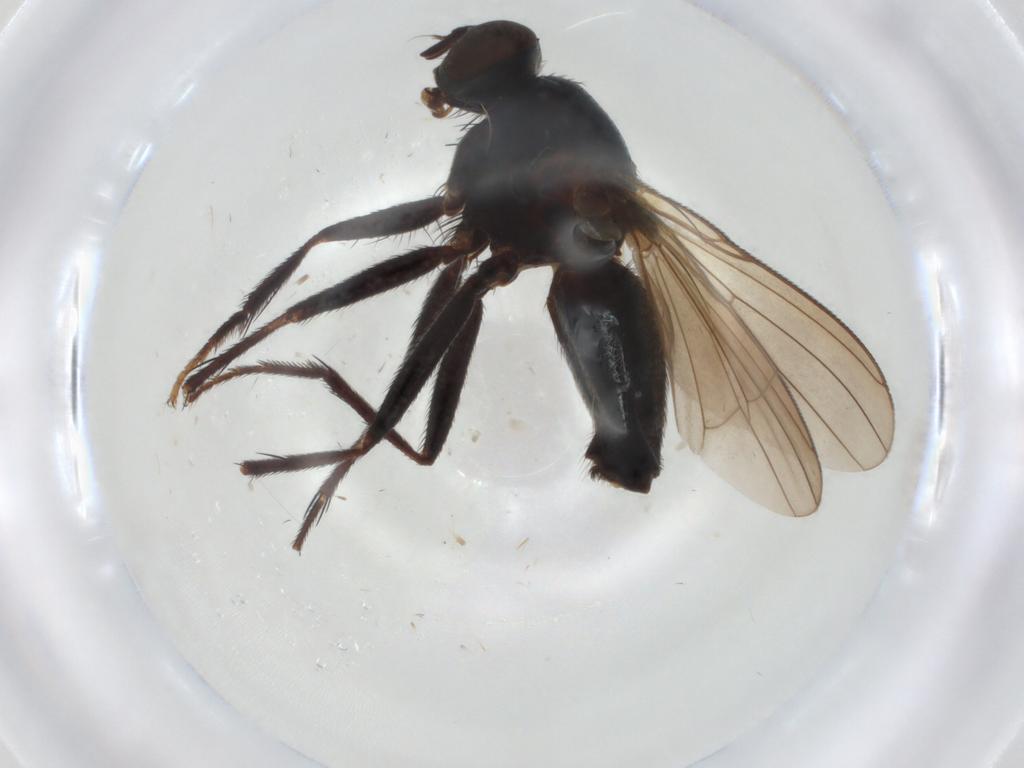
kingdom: Animalia
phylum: Arthropoda
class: Insecta
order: Diptera
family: Muscidae
